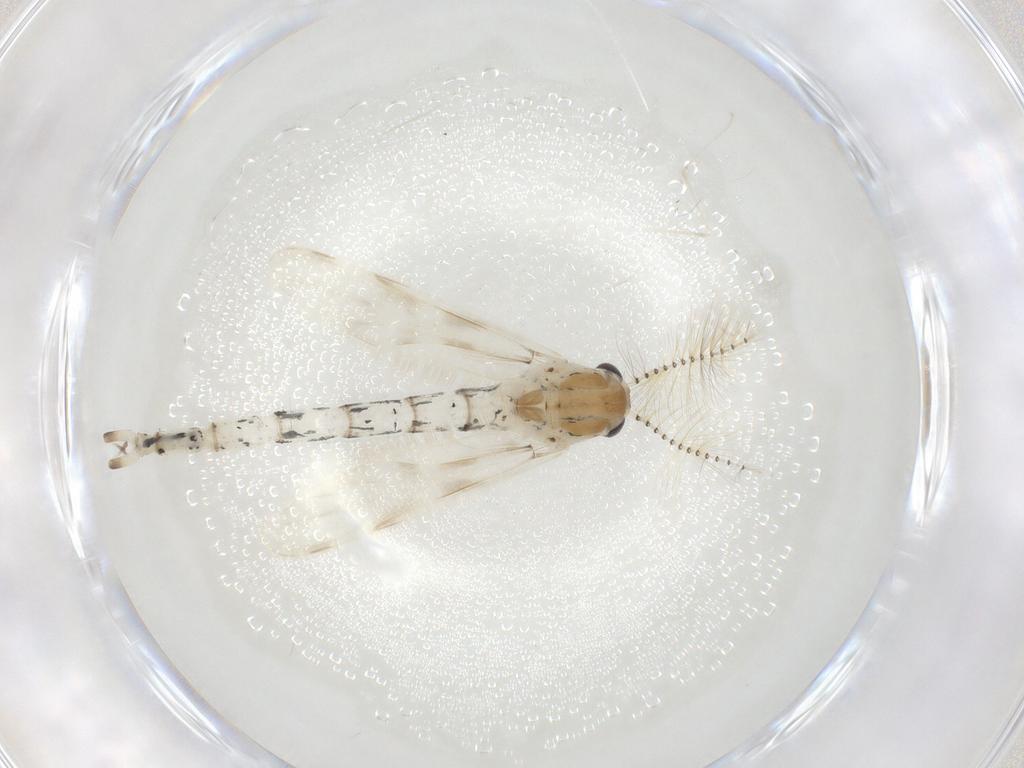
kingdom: Animalia
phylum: Arthropoda
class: Insecta
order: Diptera
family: Chaoboridae
